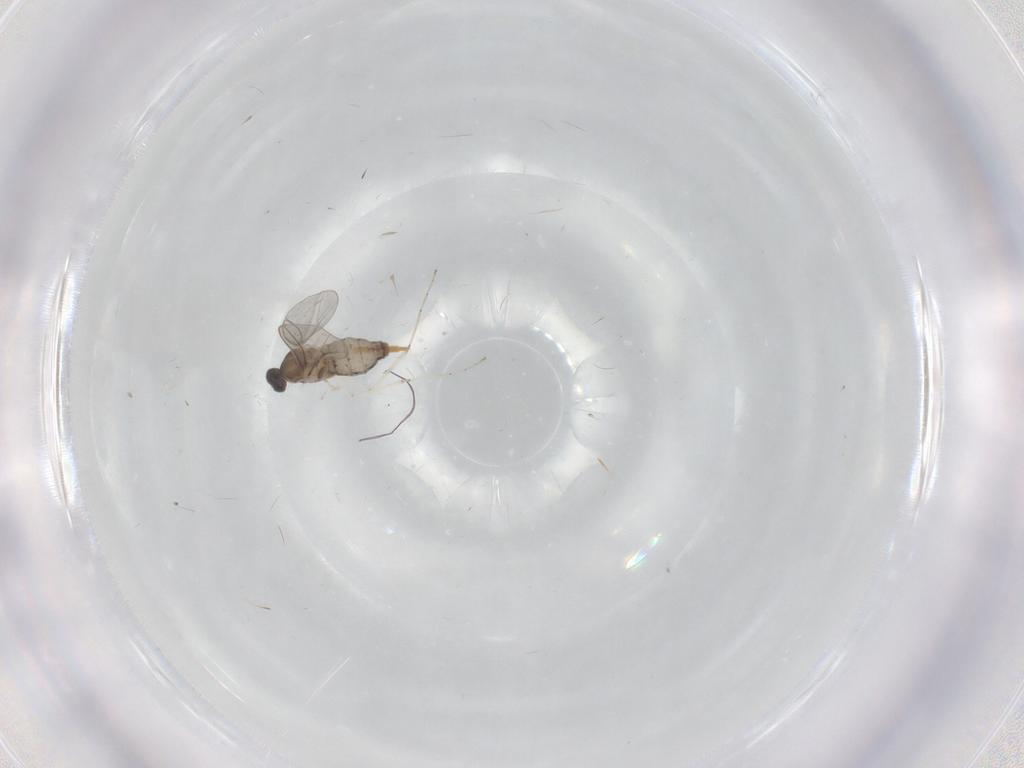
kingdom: Animalia
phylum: Arthropoda
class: Insecta
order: Diptera
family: Cecidomyiidae
